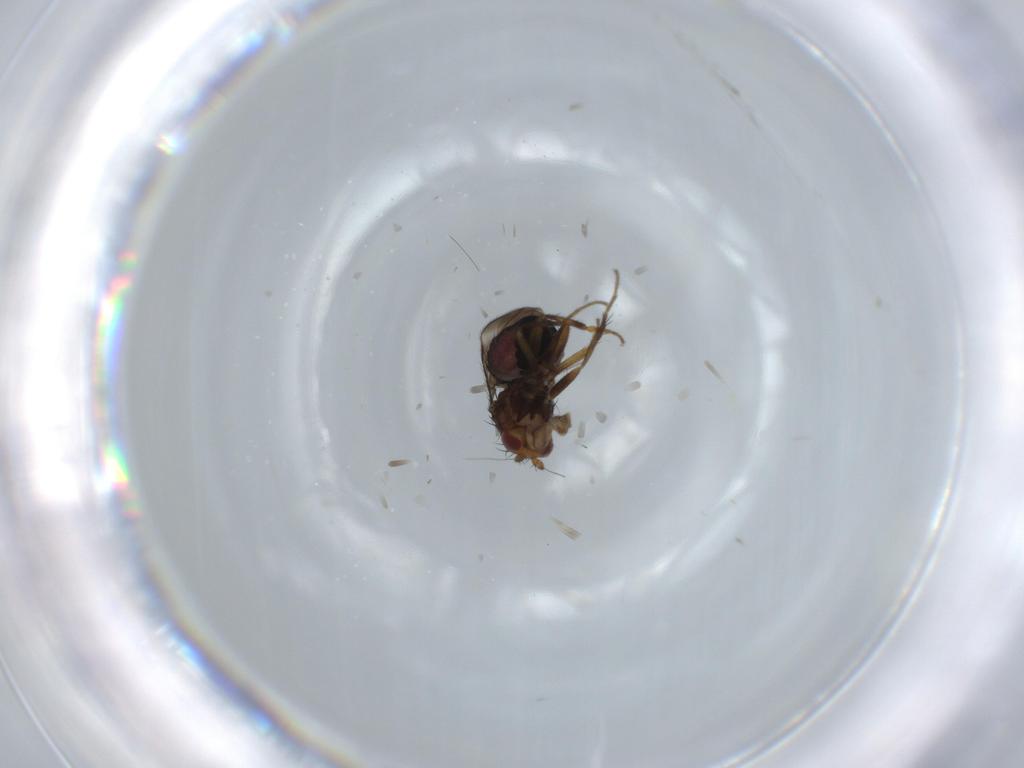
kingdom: Animalia
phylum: Arthropoda
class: Insecta
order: Diptera
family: Sphaeroceridae
